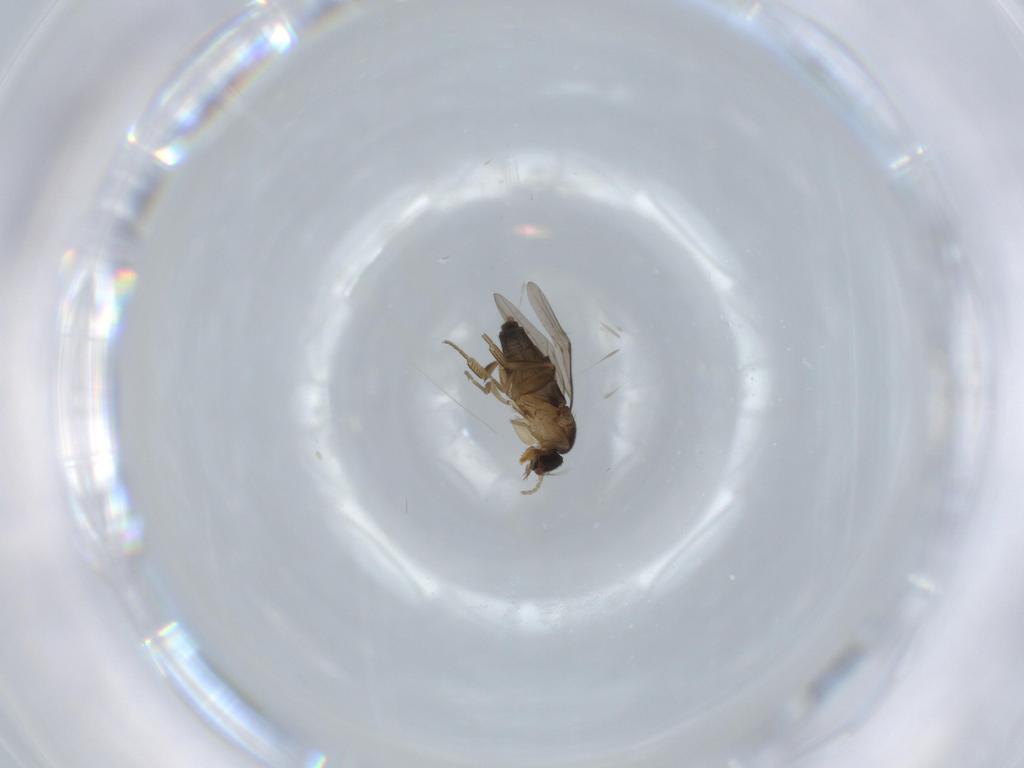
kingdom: Animalia
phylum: Arthropoda
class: Insecta
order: Diptera
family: Phoridae
